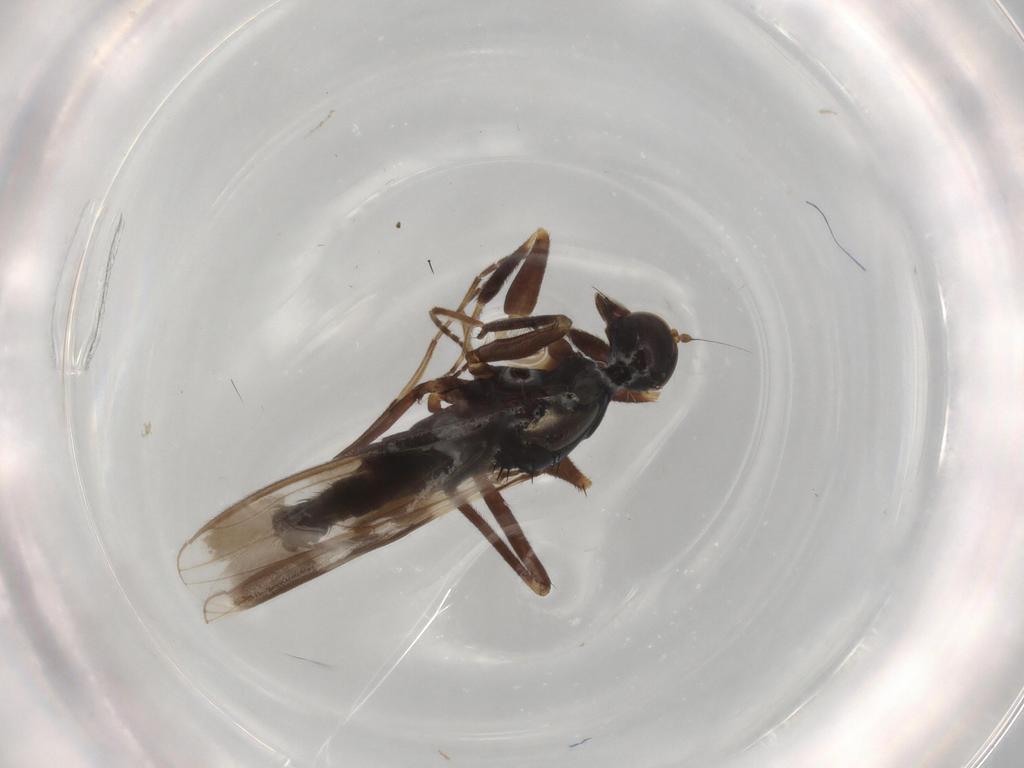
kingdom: Animalia
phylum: Arthropoda
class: Insecta
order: Diptera
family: Hybotidae
